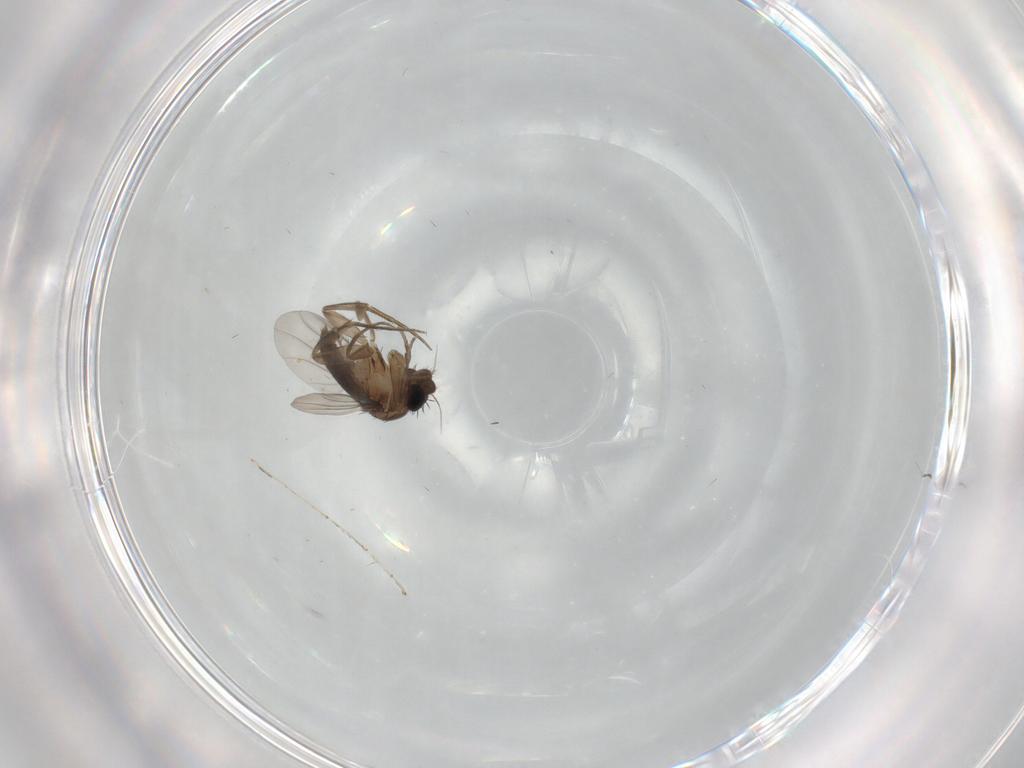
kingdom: Animalia
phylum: Arthropoda
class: Insecta
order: Diptera
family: Phoridae
